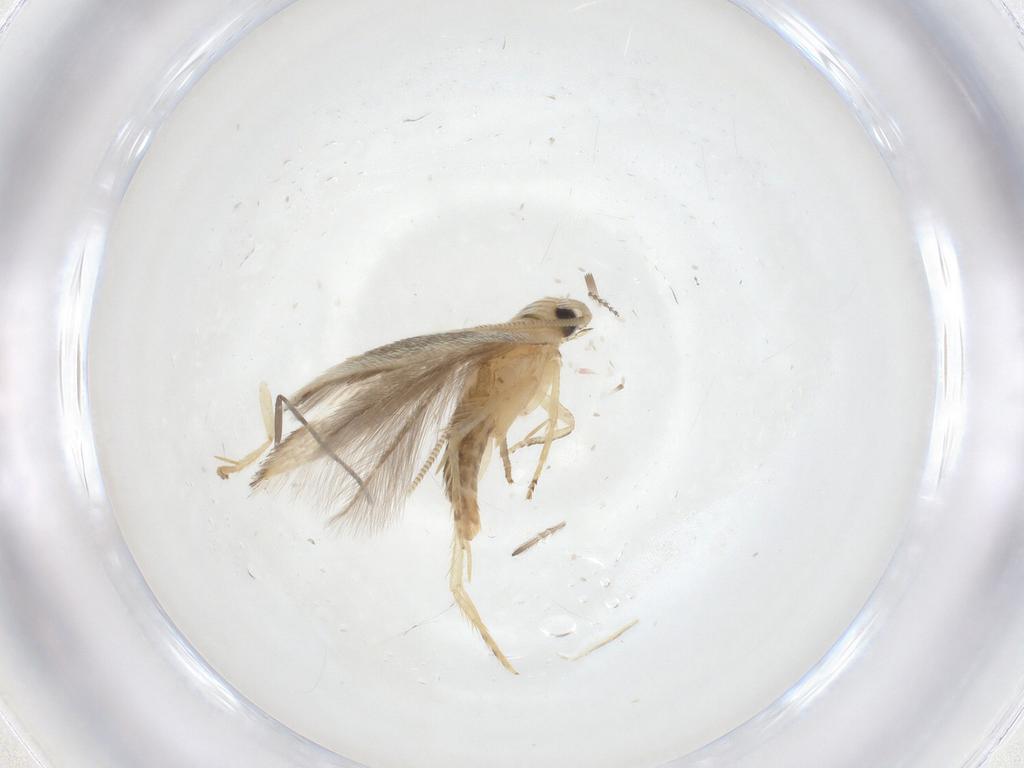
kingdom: Animalia
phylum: Arthropoda
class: Insecta
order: Lepidoptera
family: Opostegidae
